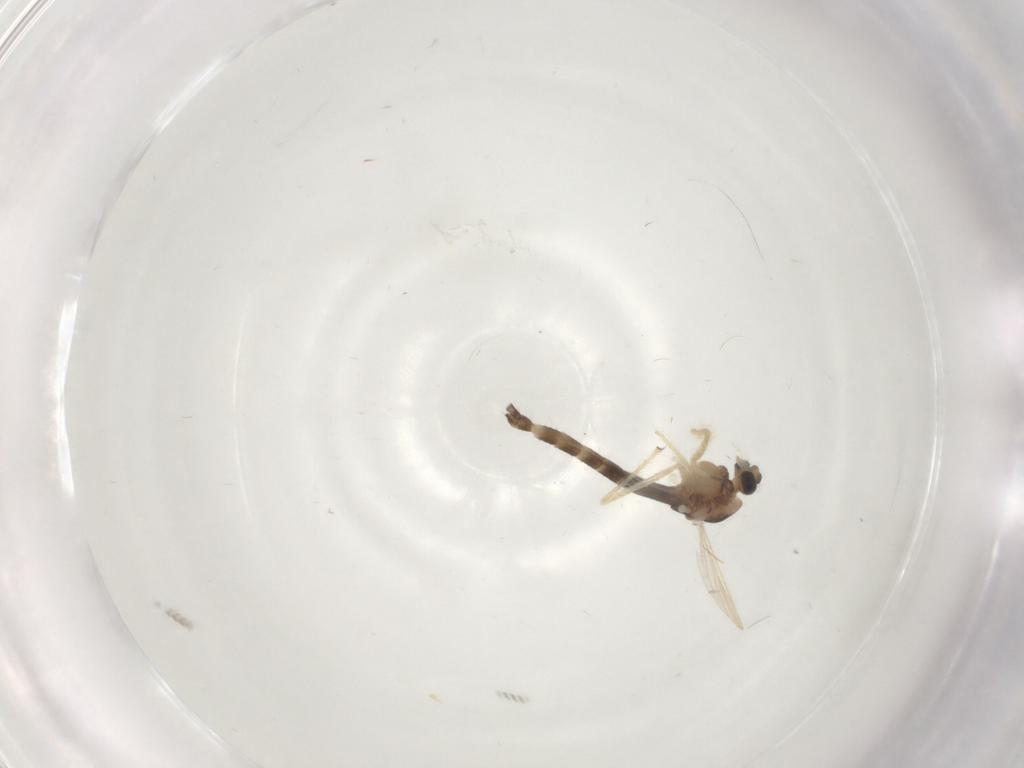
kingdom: Animalia
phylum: Arthropoda
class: Insecta
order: Diptera
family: Chironomidae
